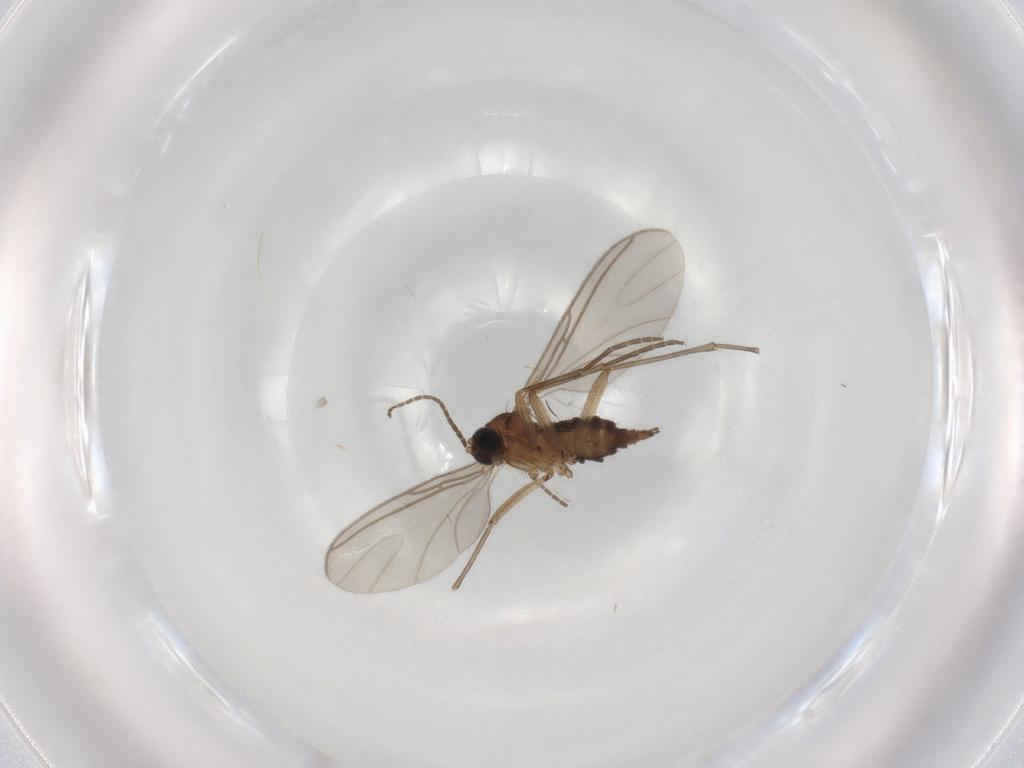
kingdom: Animalia
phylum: Arthropoda
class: Insecta
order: Diptera
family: Sciaridae
